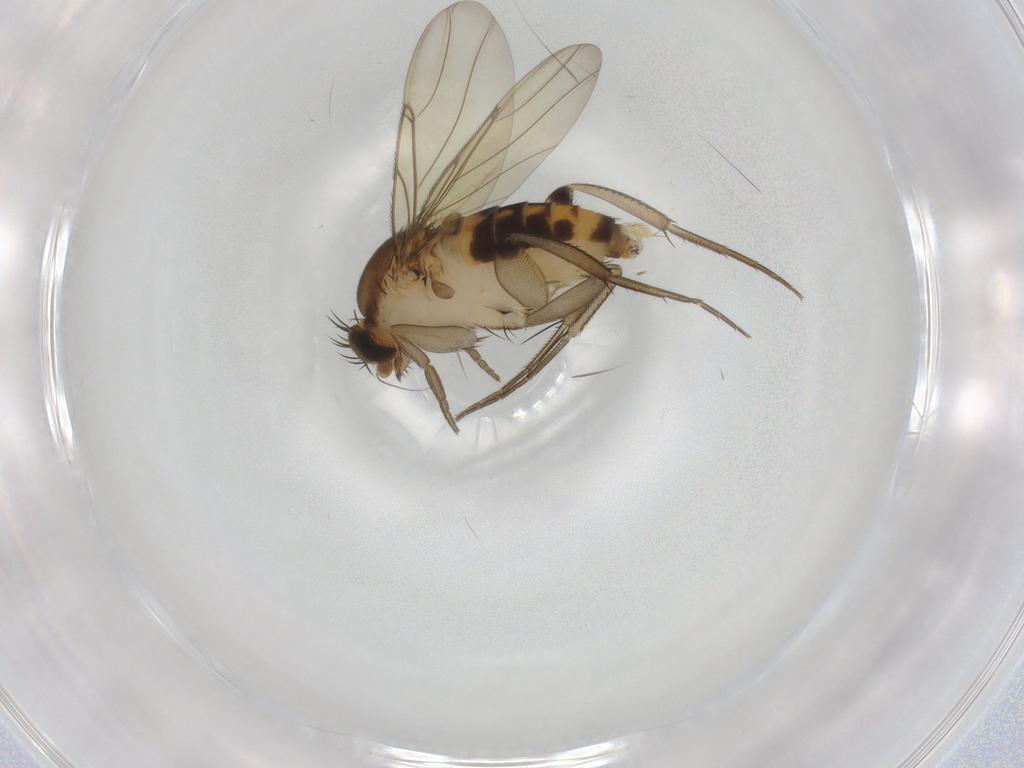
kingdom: Animalia
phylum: Arthropoda
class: Insecta
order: Diptera
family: Phoridae
